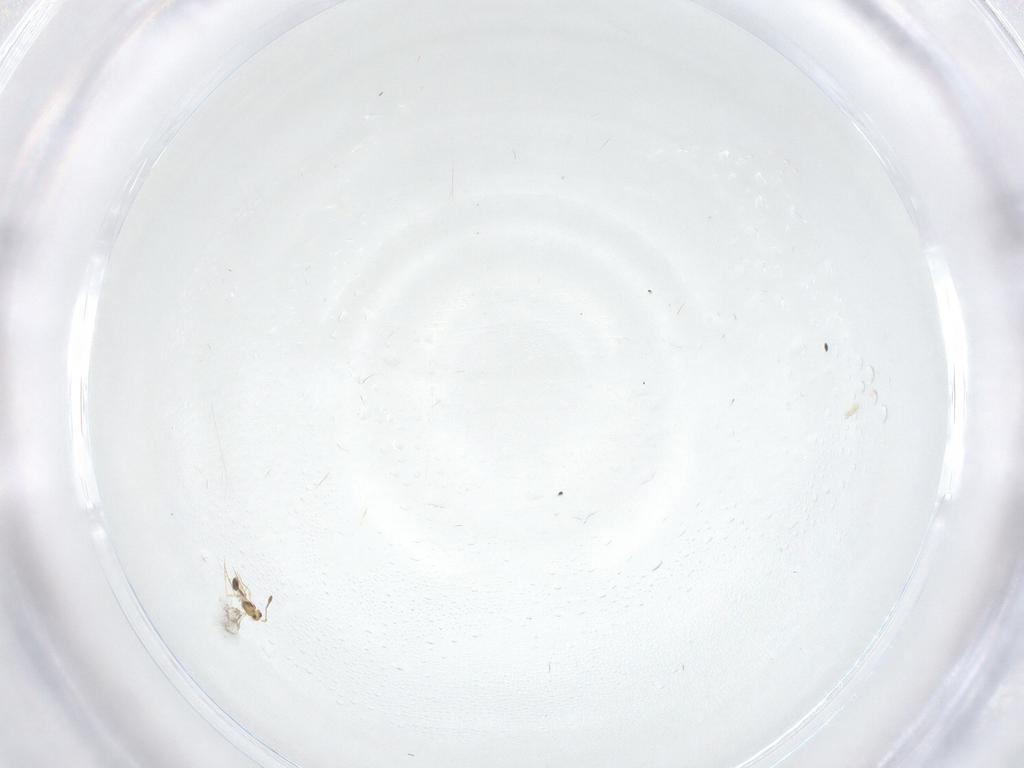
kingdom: Animalia
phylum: Arthropoda
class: Insecta
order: Hymenoptera
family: Mymarommatidae
